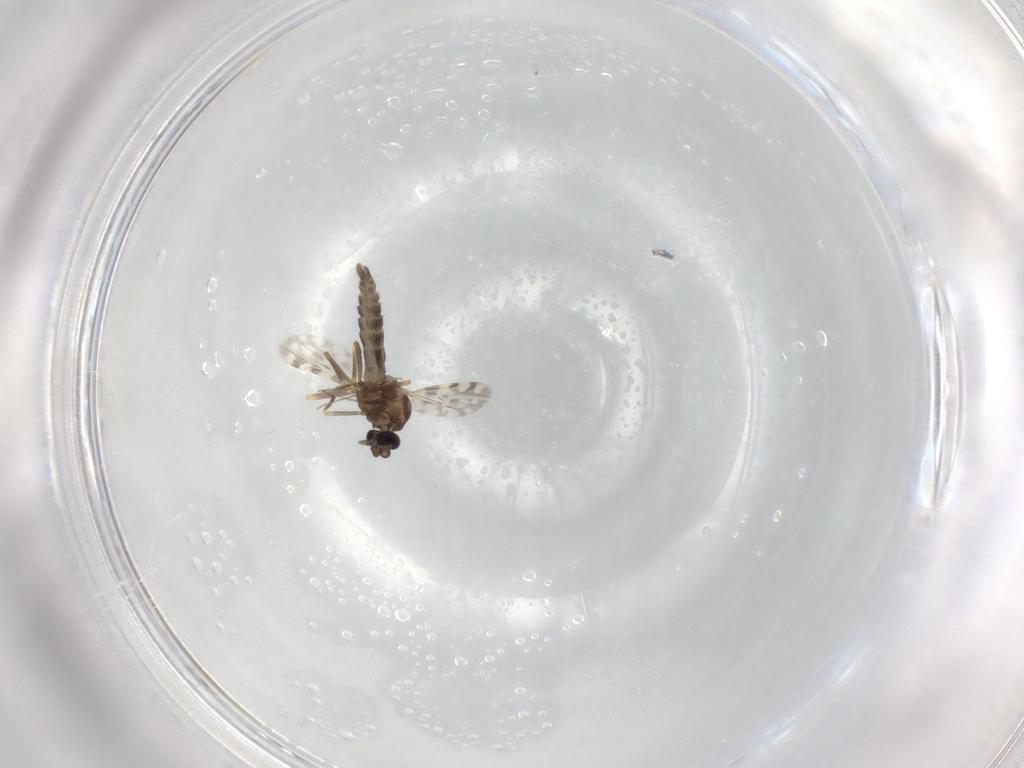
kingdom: Animalia
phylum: Arthropoda
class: Insecta
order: Diptera
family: Ceratopogonidae
